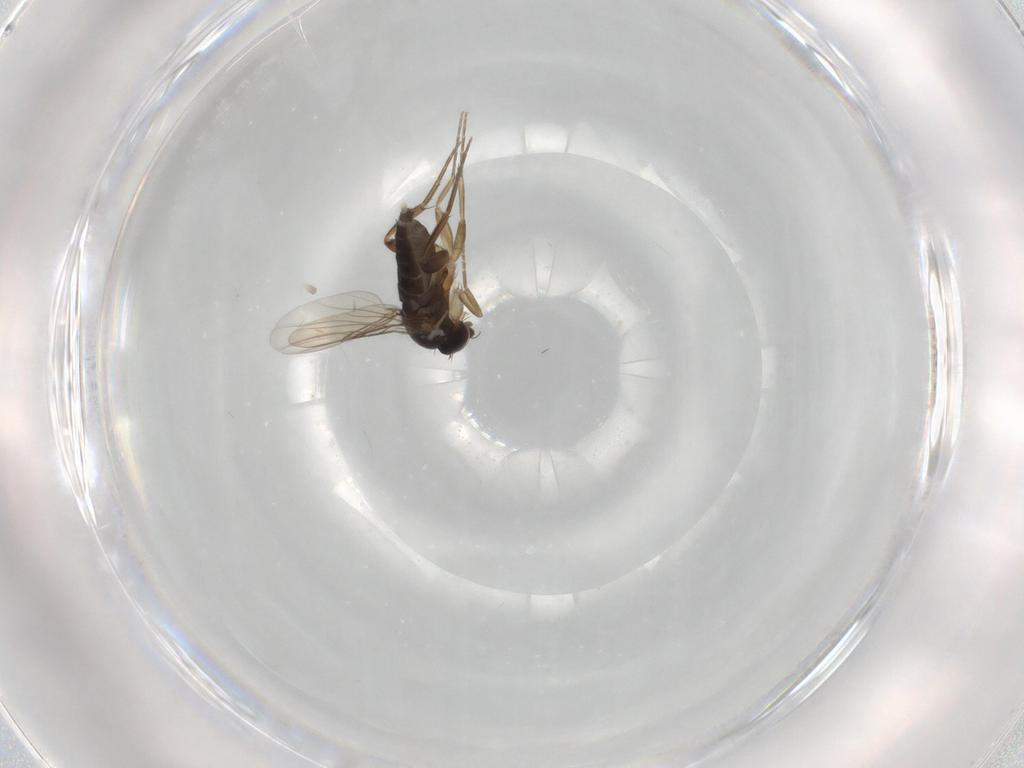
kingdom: Animalia
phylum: Arthropoda
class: Insecta
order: Diptera
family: Phoridae
